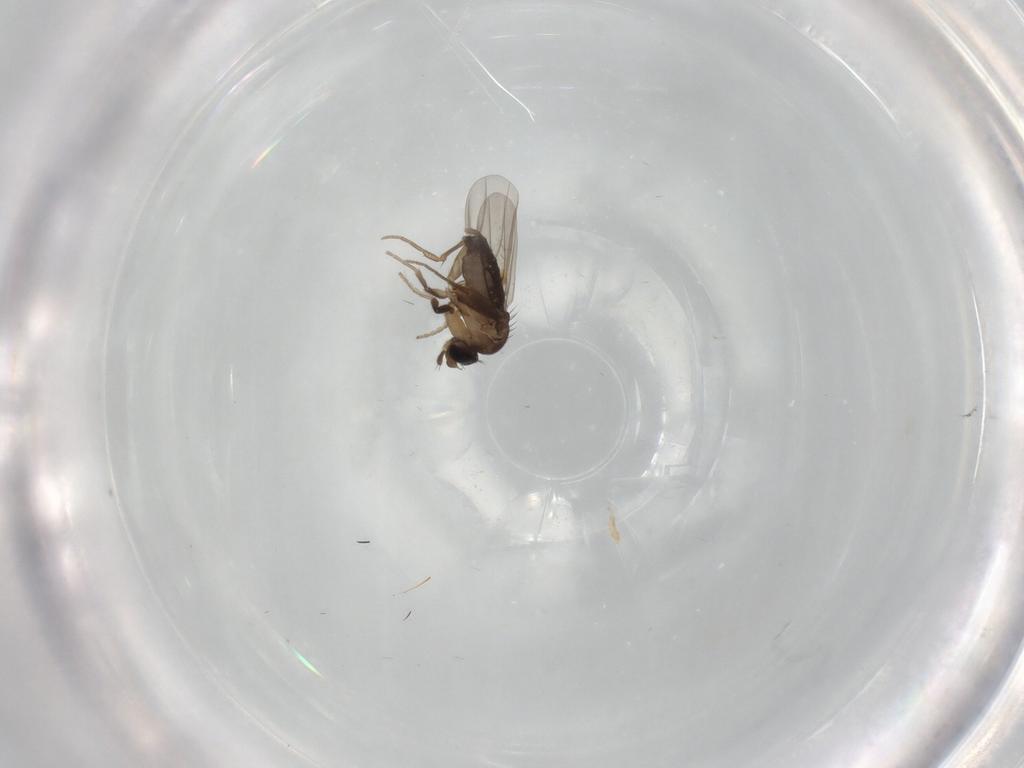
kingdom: Animalia
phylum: Arthropoda
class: Insecta
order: Diptera
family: Phoridae
